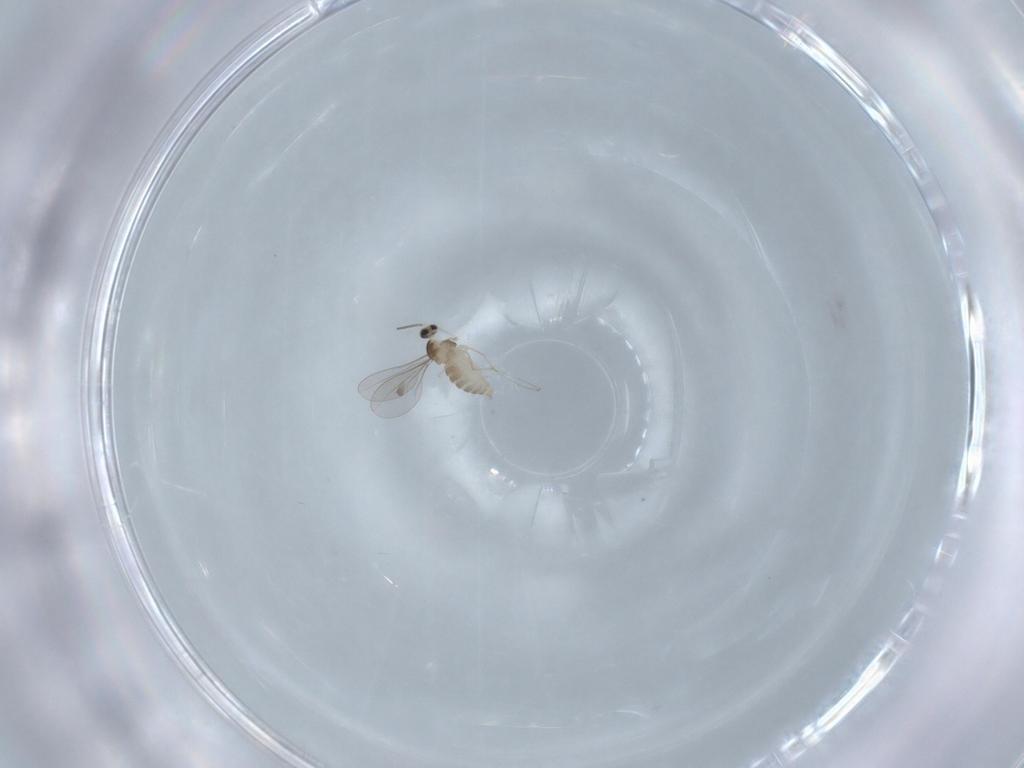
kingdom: Animalia
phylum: Arthropoda
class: Insecta
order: Diptera
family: Cecidomyiidae
